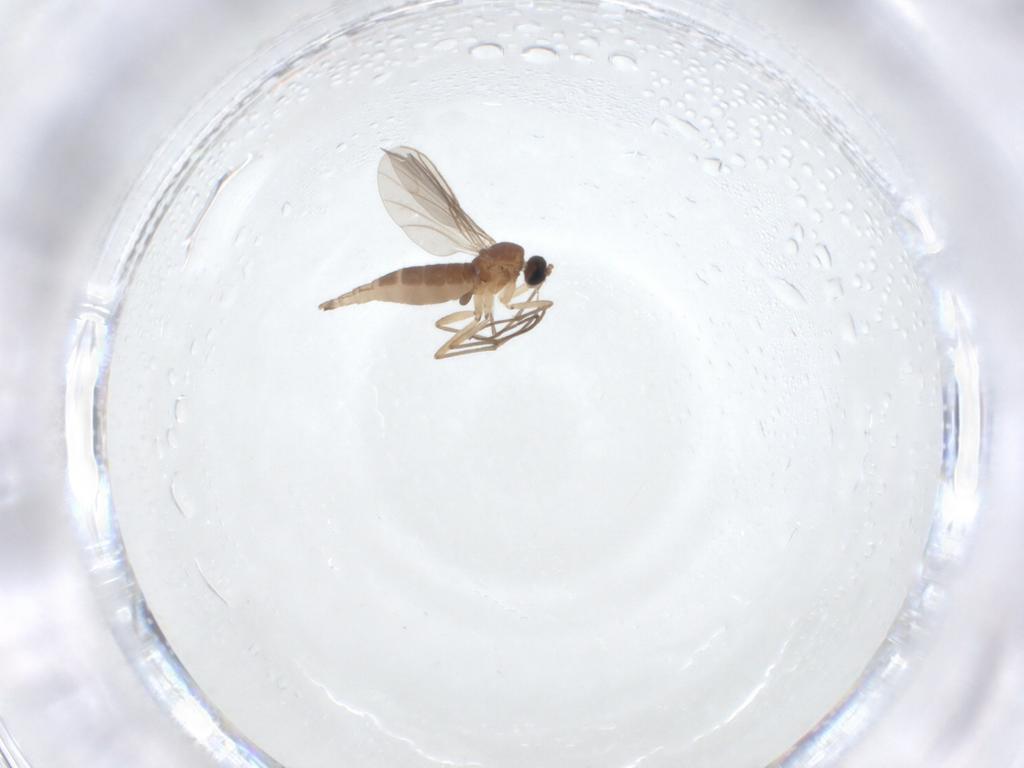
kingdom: Animalia
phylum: Arthropoda
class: Insecta
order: Diptera
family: Sciaridae
